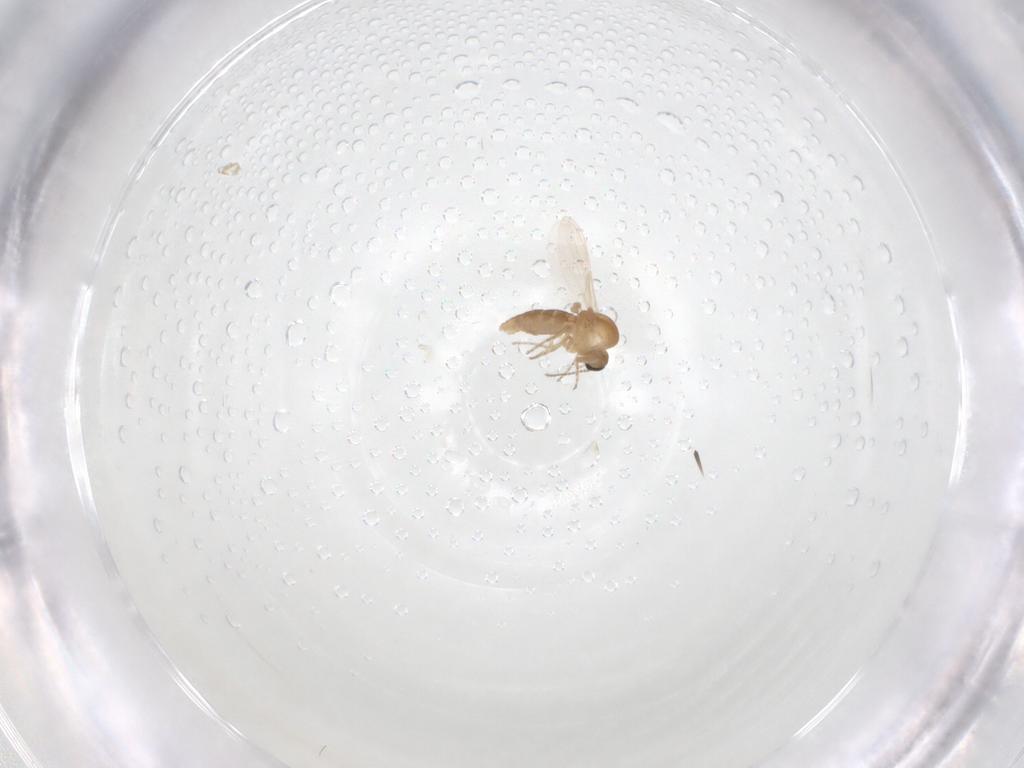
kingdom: Animalia
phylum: Arthropoda
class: Insecta
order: Diptera
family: Ceratopogonidae
